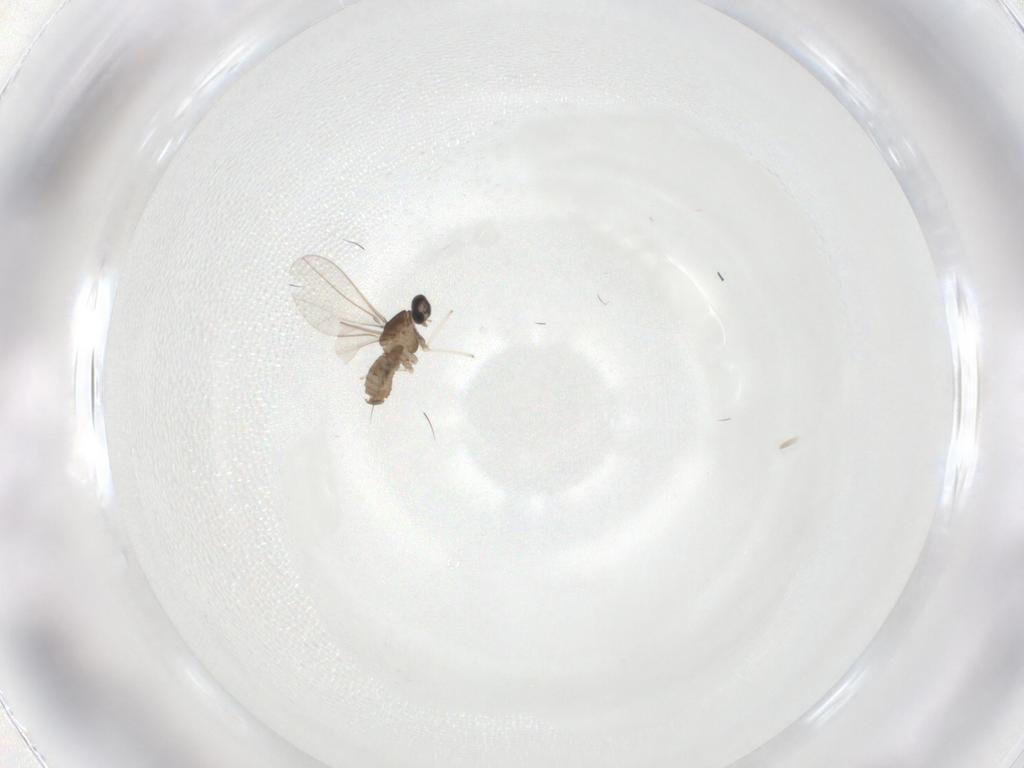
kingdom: Animalia
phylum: Arthropoda
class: Insecta
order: Diptera
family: Cecidomyiidae
